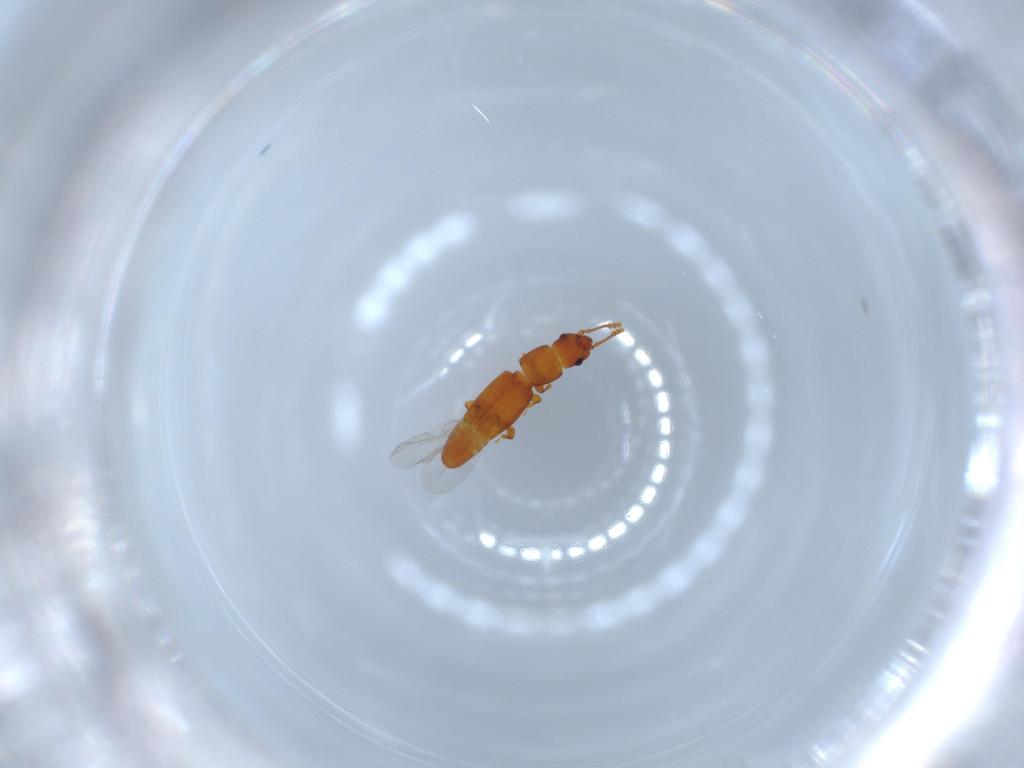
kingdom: Animalia
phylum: Arthropoda
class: Insecta
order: Coleoptera
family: Smicripidae
